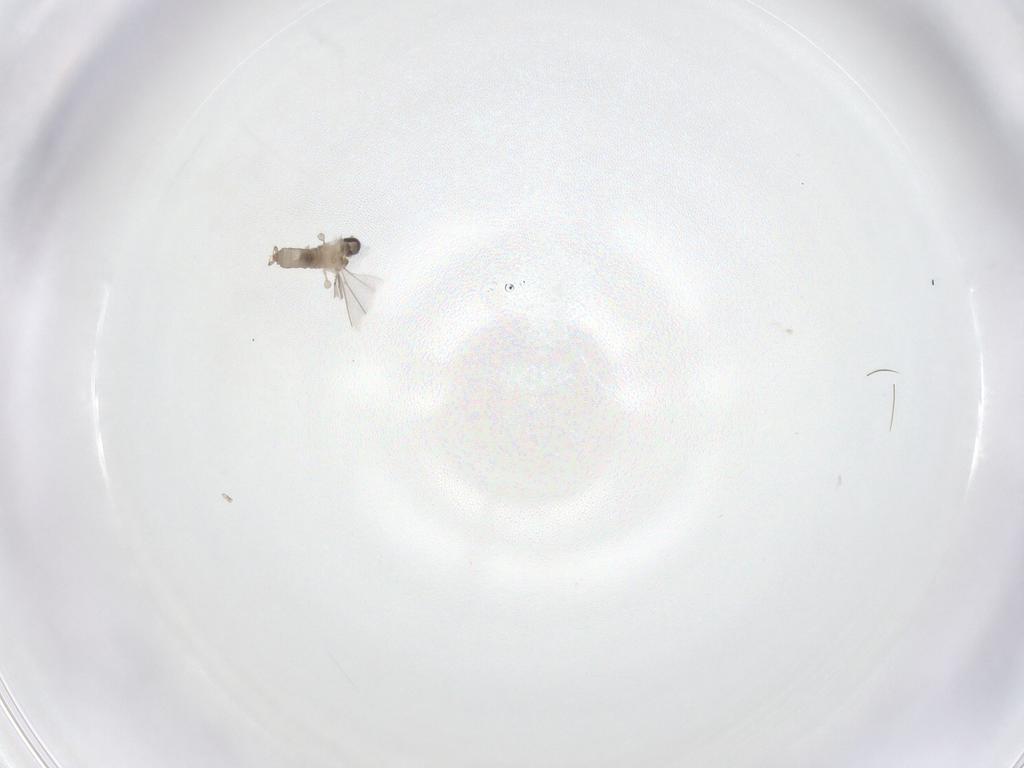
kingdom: Animalia
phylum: Arthropoda
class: Insecta
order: Diptera
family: Cecidomyiidae
